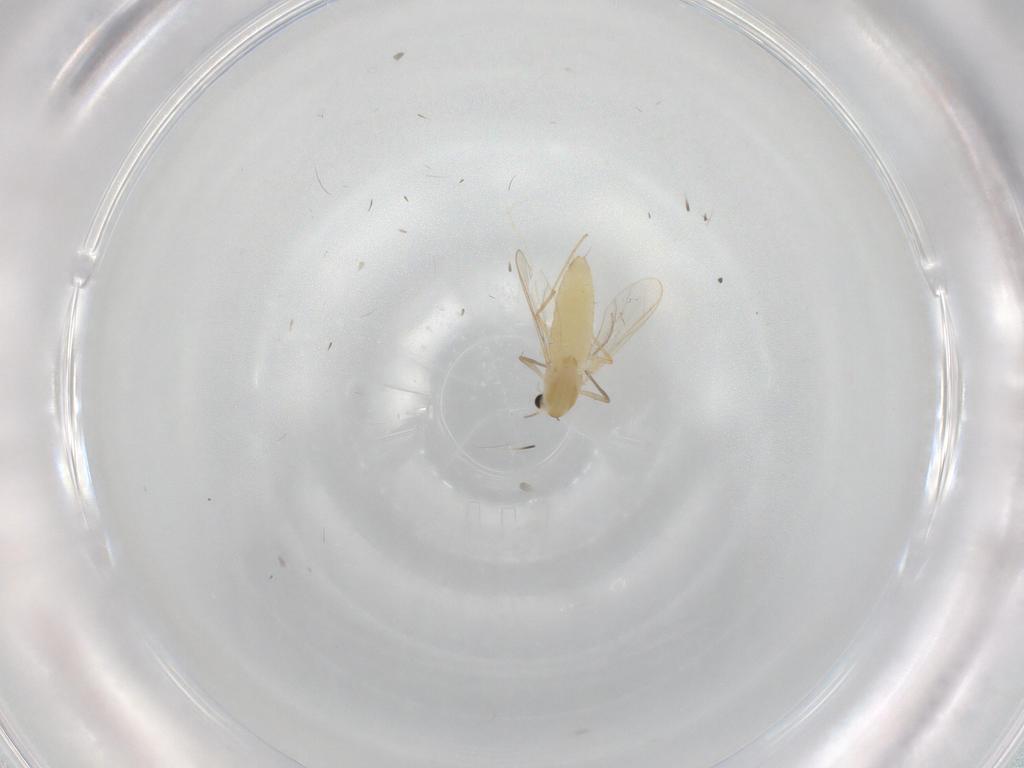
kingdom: Animalia
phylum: Arthropoda
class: Insecta
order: Diptera
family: Chironomidae
